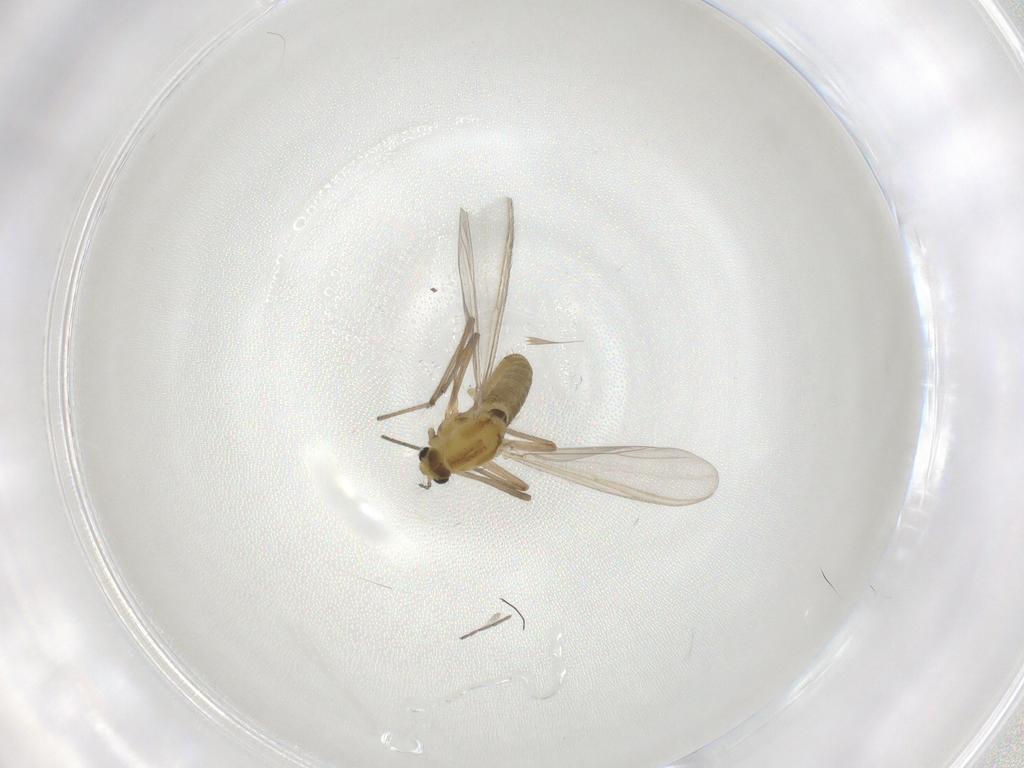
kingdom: Animalia
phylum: Arthropoda
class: Insecta
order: Diptera
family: Chironomidae
